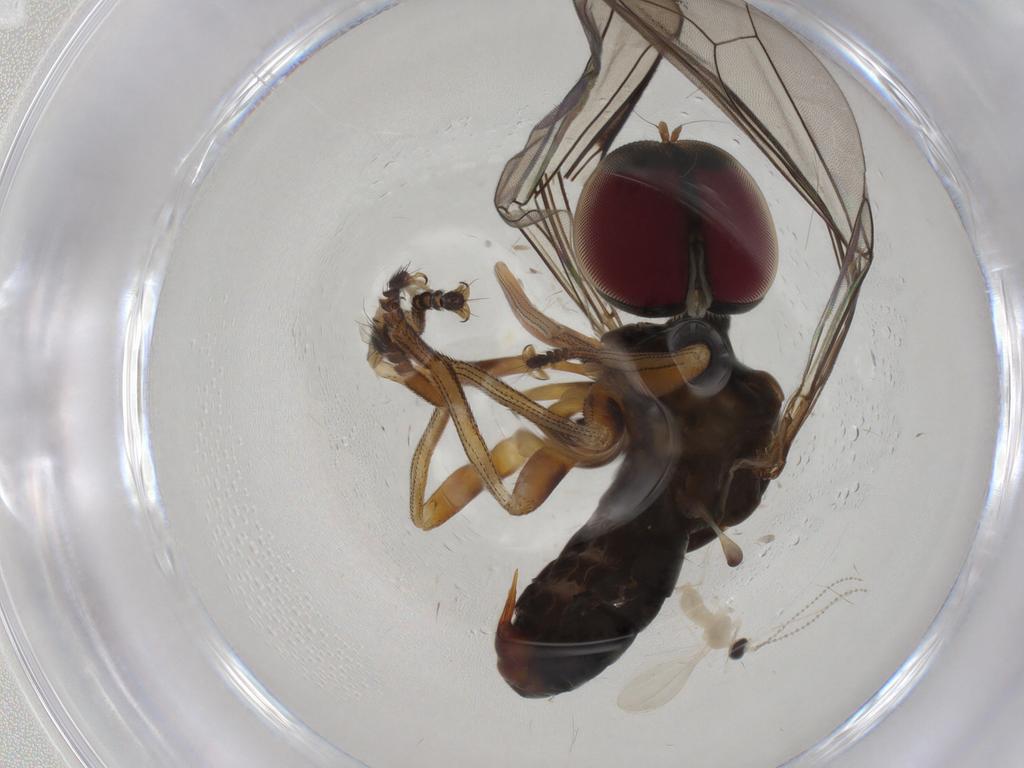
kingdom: Animalia
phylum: Arthropoda
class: Insecta
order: Diptera
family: Pipunculidae
